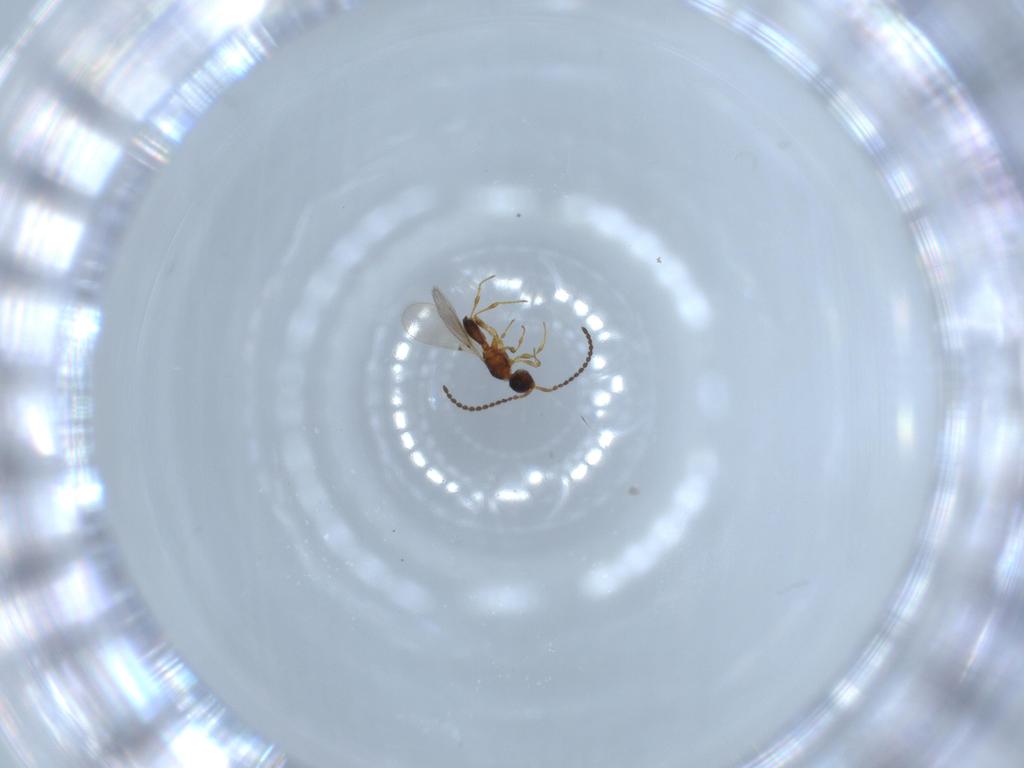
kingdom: Animalia
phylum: Arthropoda
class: Insecta
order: Hymenoptera
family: Diapriidae
